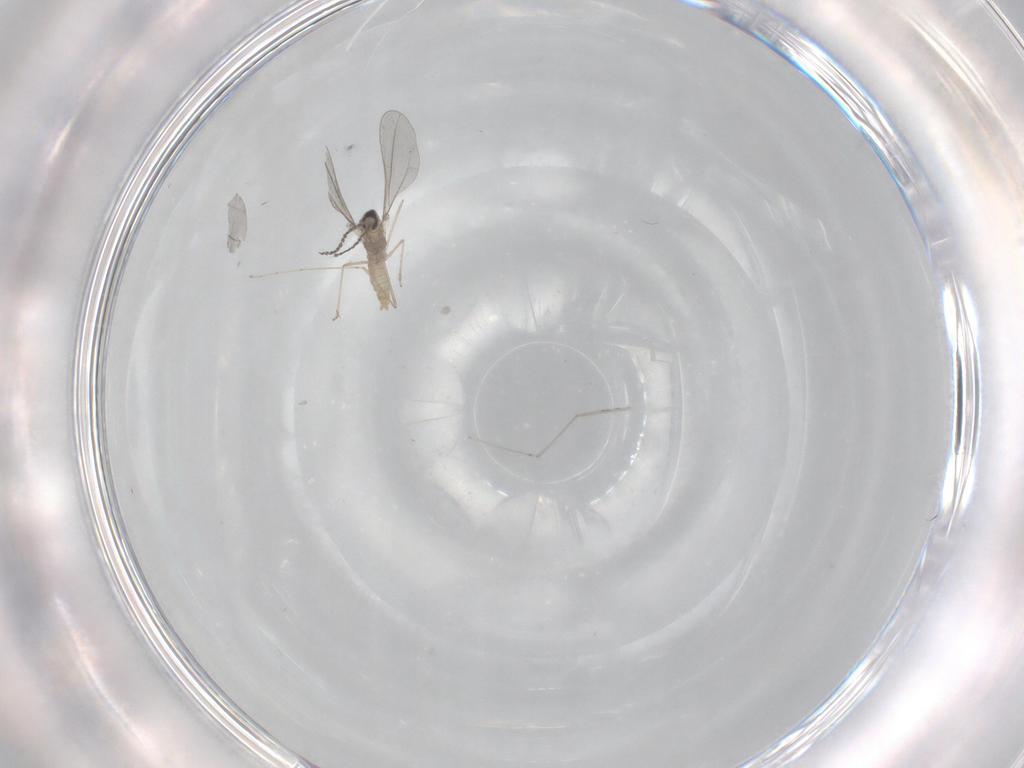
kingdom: Animalia
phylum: Arthropoda
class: Insecta
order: Diptera
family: Cecidomyiidae
